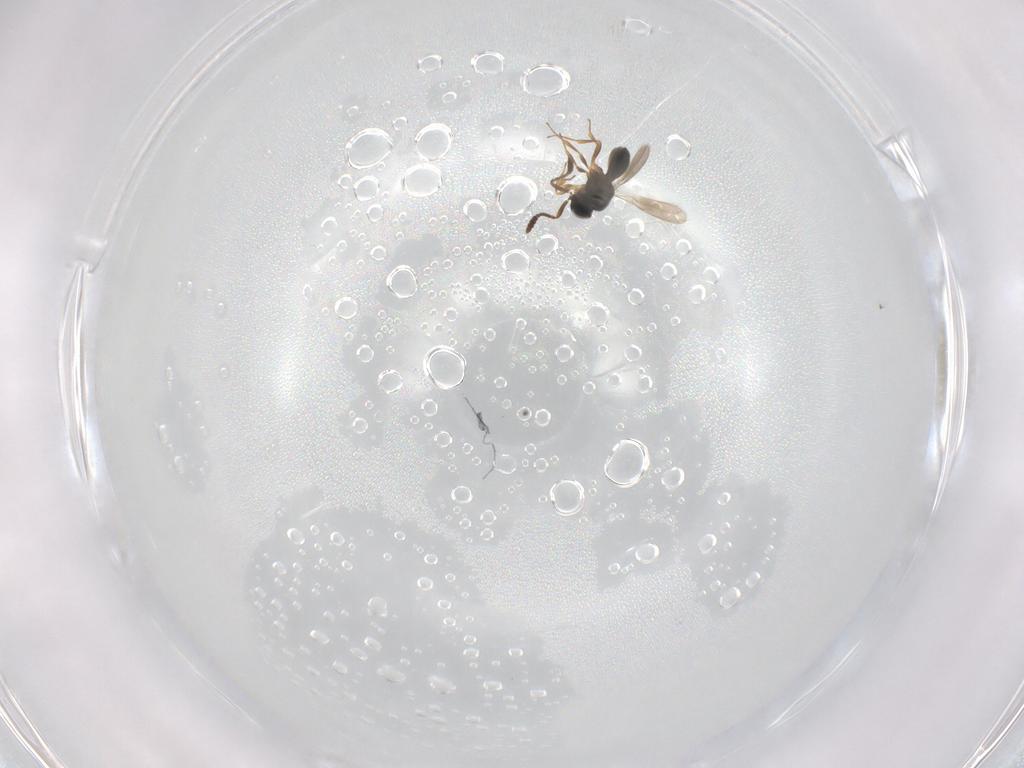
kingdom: Animalia
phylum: Arthropoda
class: Insecta
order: Hymenoptera
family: Scelionidae
